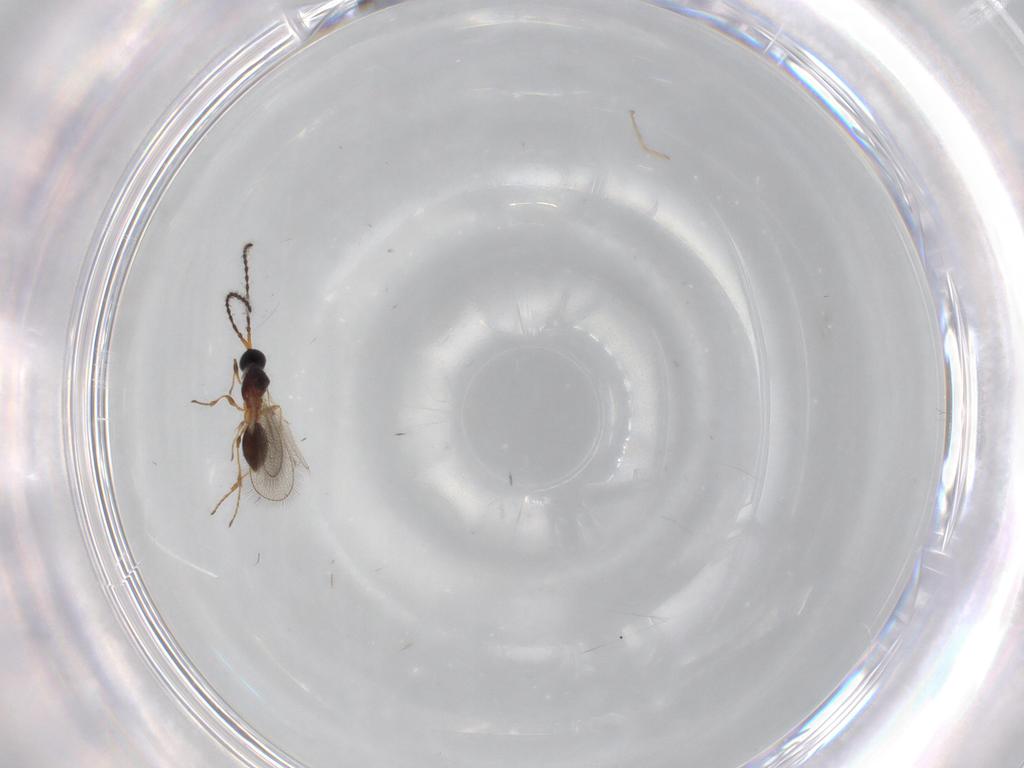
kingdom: Animalia
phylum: Arthropoda
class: Insecta
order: Hymenoptera
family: Diapriidae
